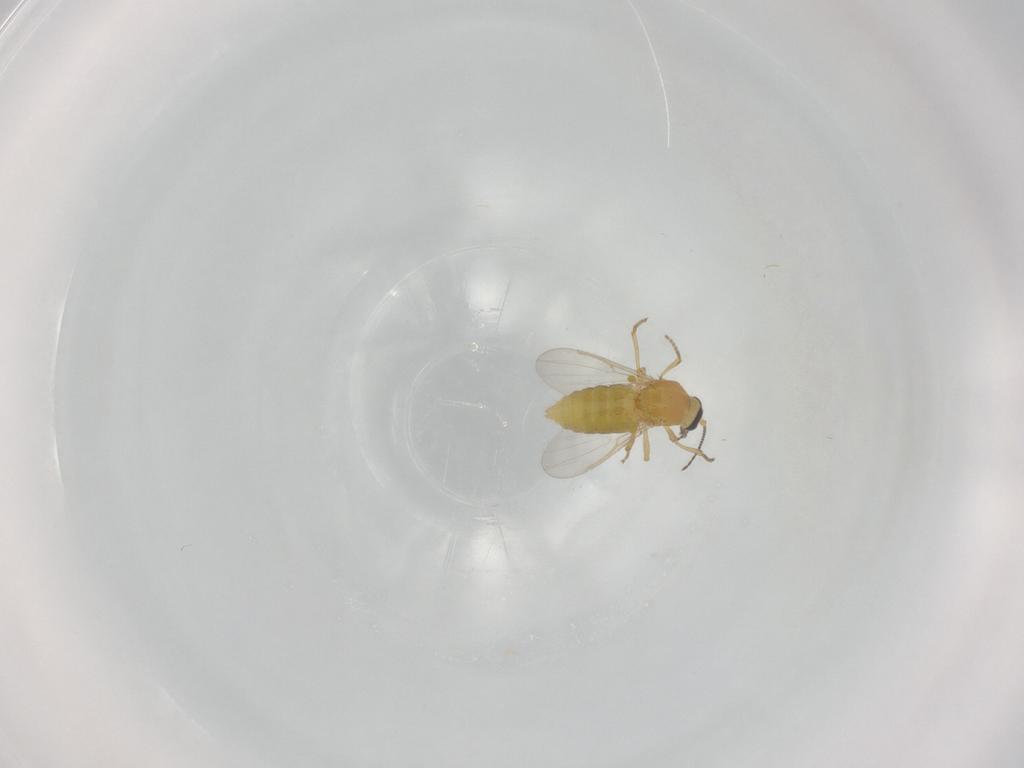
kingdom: Animalia
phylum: Arthropoda
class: Insecta
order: Diptera
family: Ceratopogonidae
